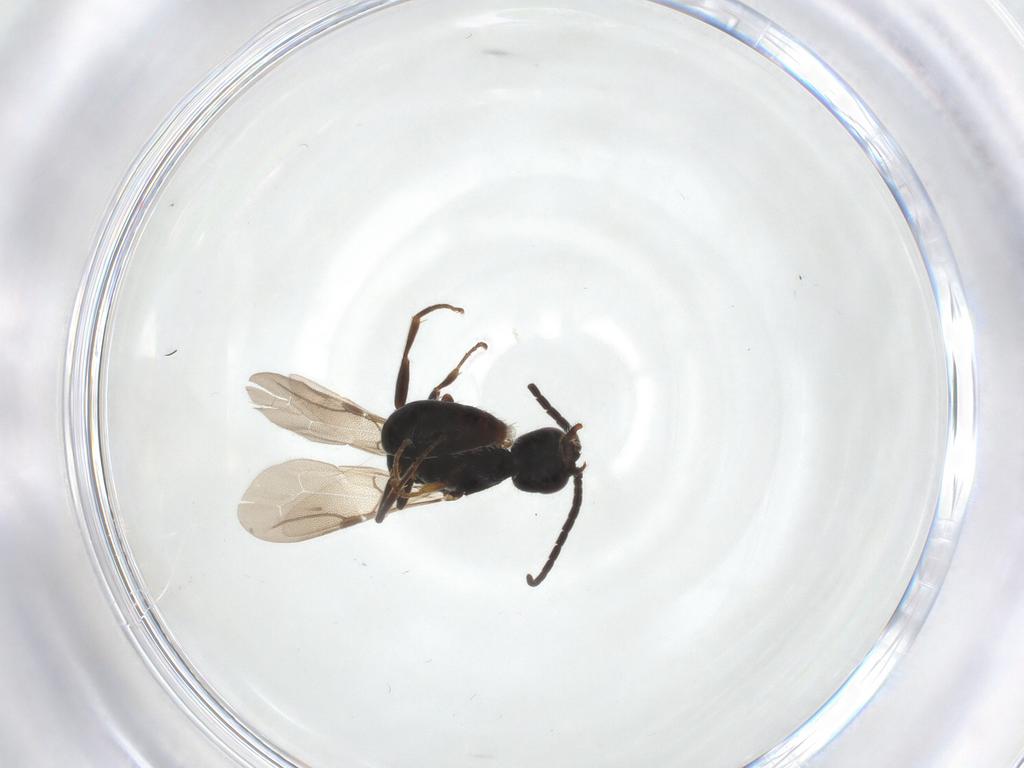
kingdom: Animalia
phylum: Arthropoda
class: Insecta
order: Hymenoptera
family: Bethylidae
